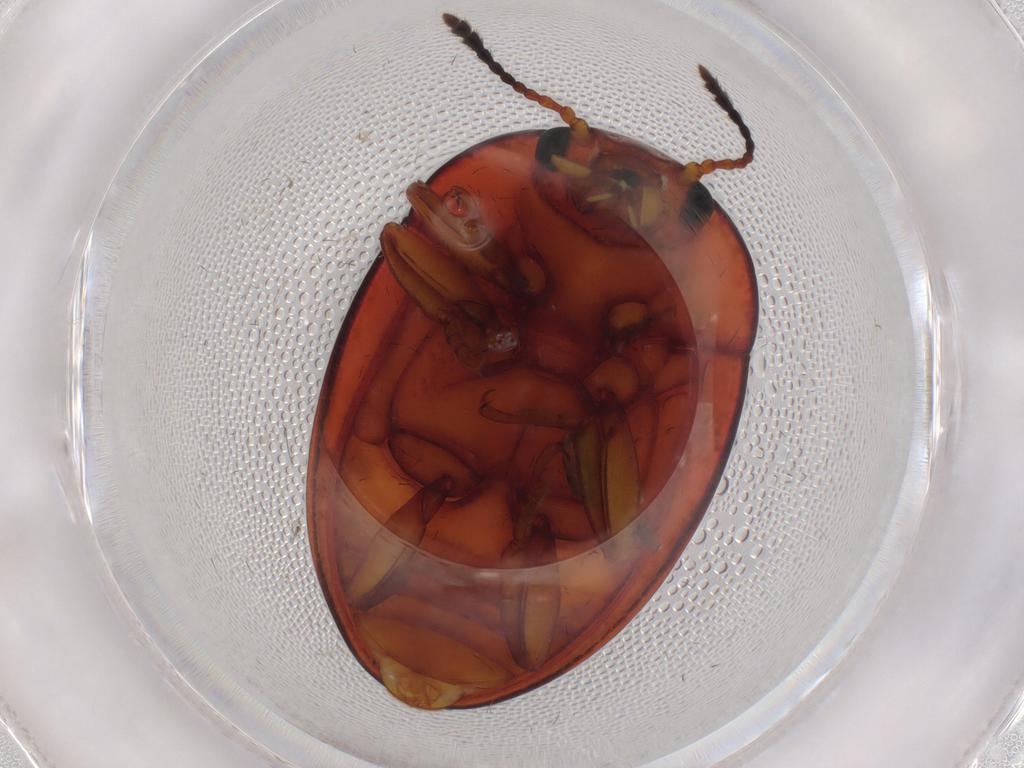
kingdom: Animalia
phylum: Arthropoda
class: Insecta
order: Coleoptera
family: Erotylidae
